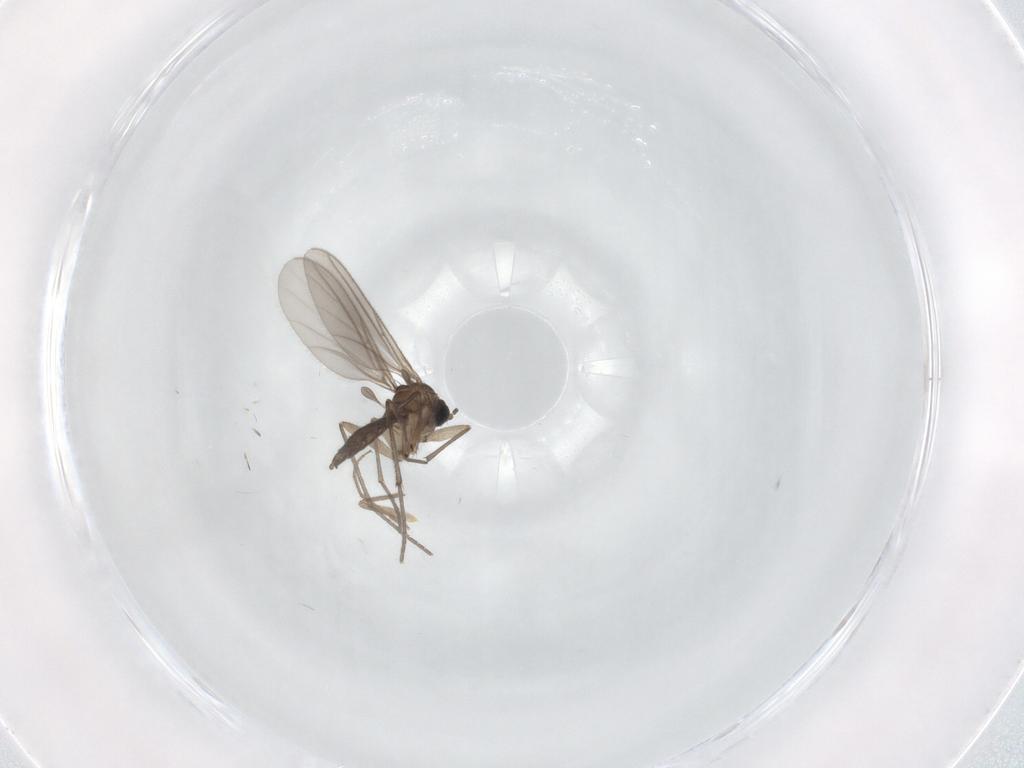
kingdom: Animalia
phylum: Arthropoda
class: Insecta
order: Diptera
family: Sciaridae
